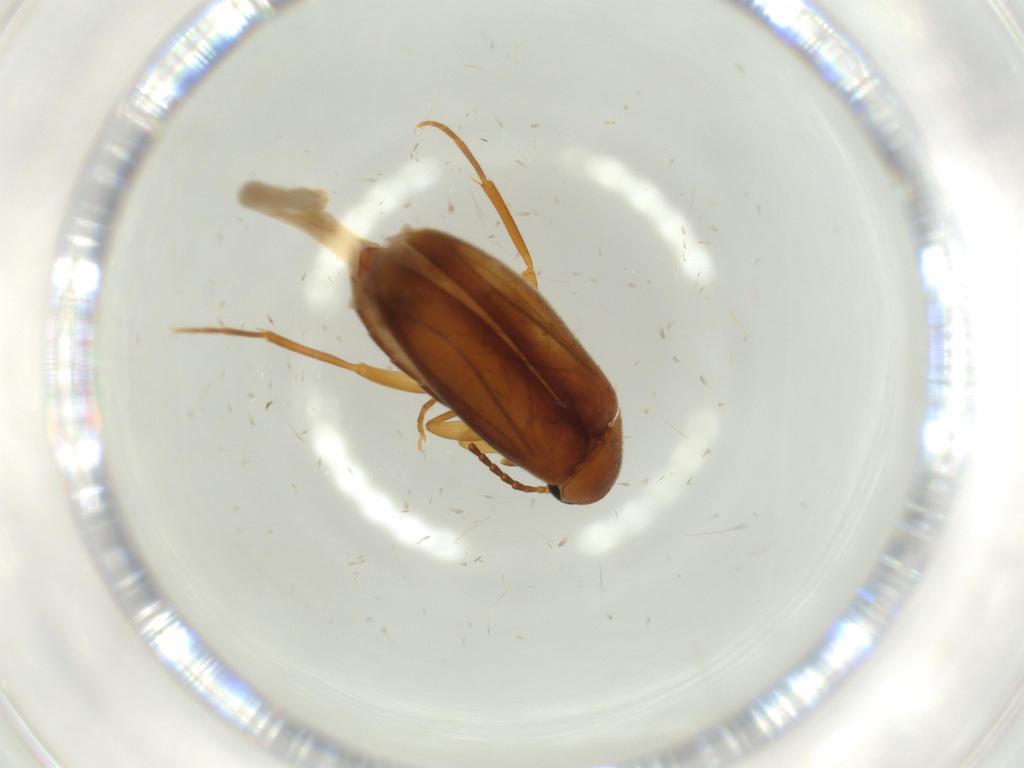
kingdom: Animalia
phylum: Arthropoda
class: Insecta
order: Coleoptera
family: Scraptiidae
